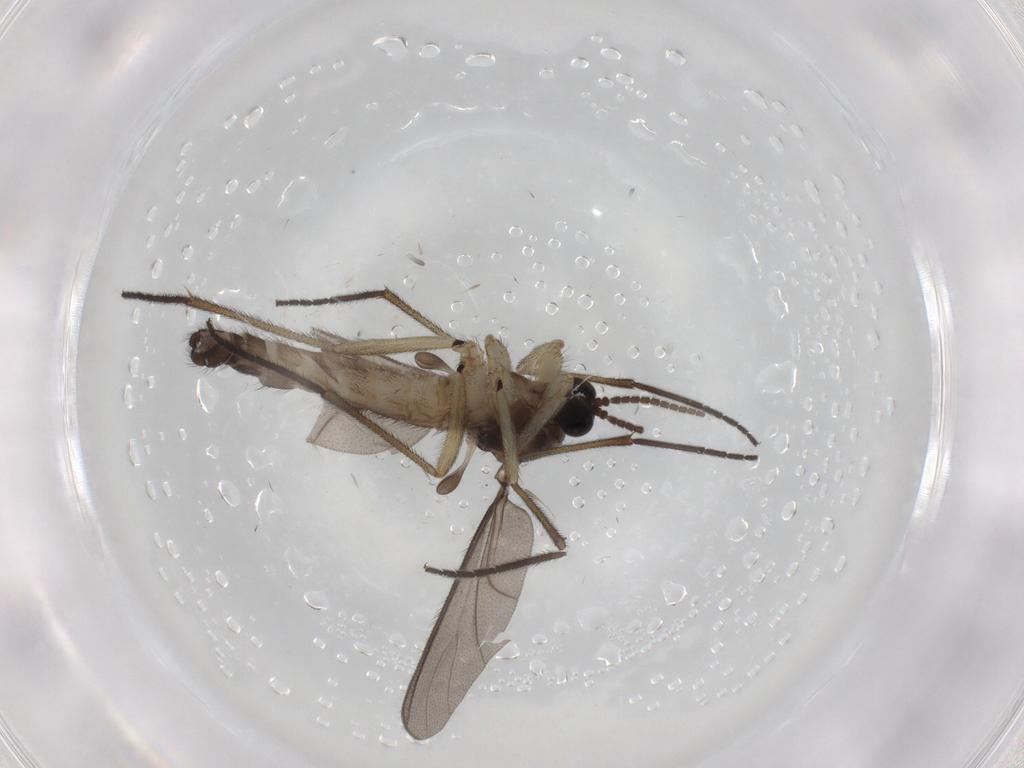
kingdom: Animalia
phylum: Arthropoda
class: Insecta
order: Diptera
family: Sciaridae
